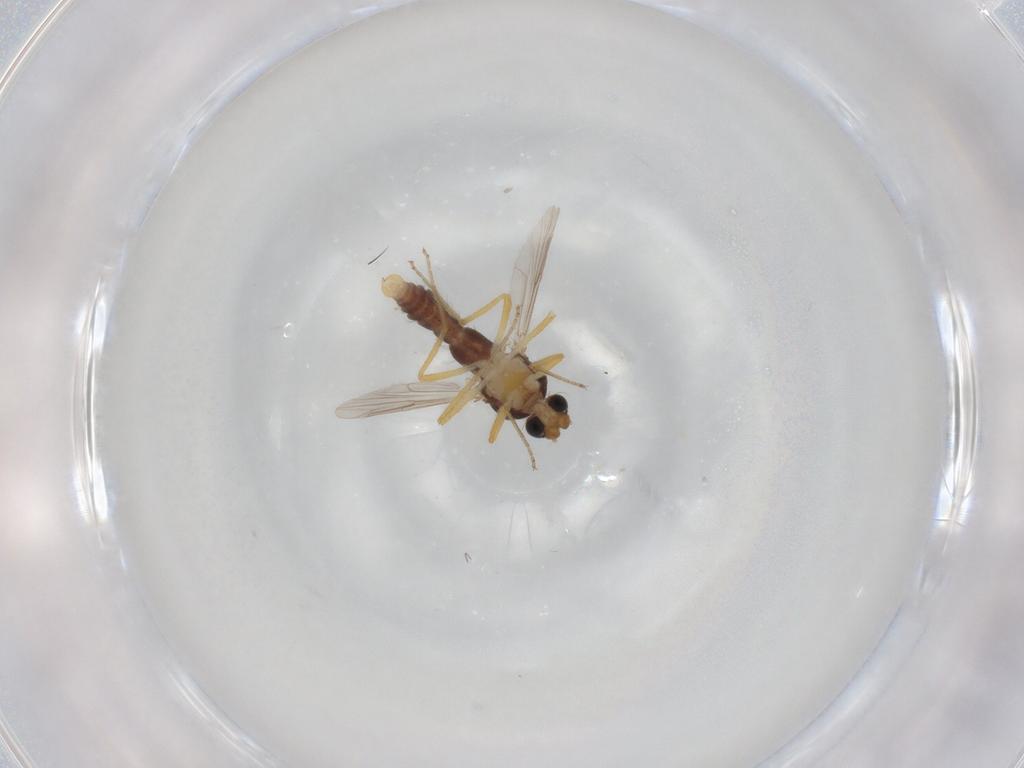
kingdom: Animalia
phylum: Arthropoda
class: Insecta
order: Diptera
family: Ceratopogonidae
